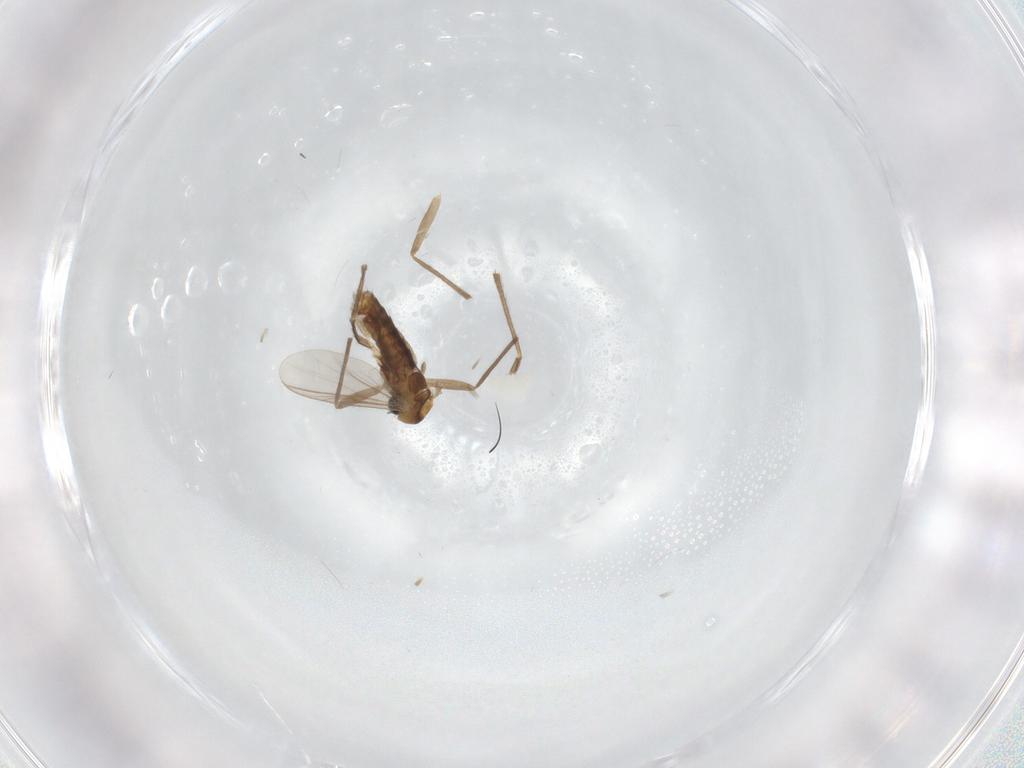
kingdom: Animalia
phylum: Arthropoda
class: Insecta
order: Diptera
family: Chironomidae
